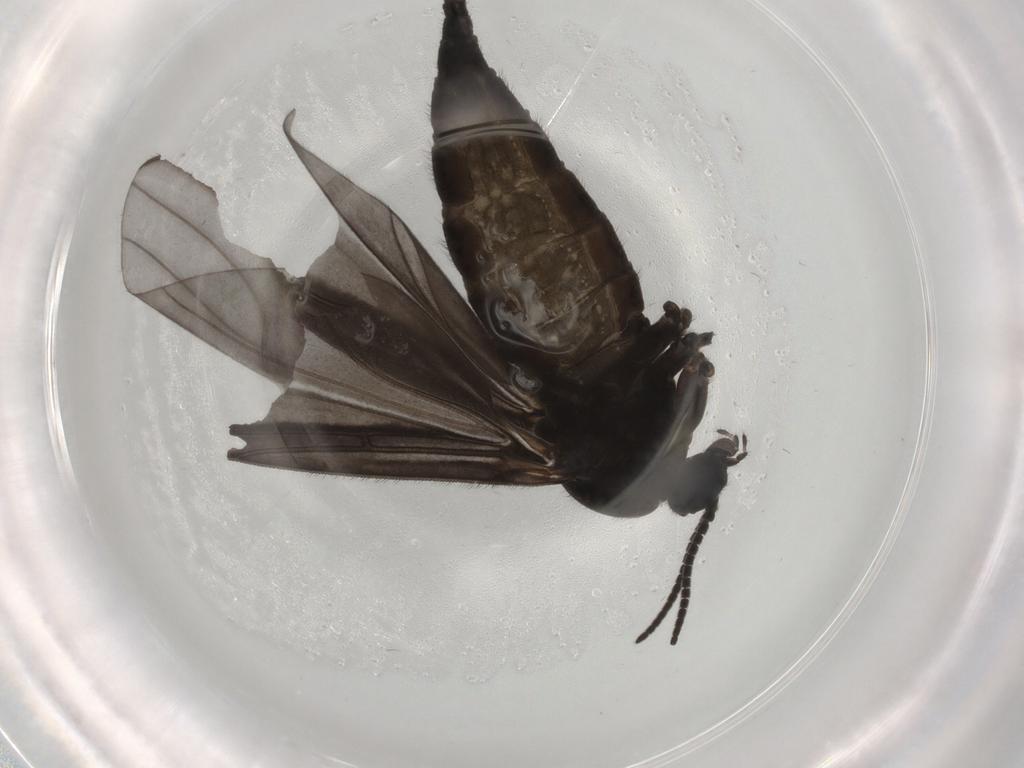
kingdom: Animalia
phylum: Arthropoda
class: Insecta
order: Diptera
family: Sciaridae
